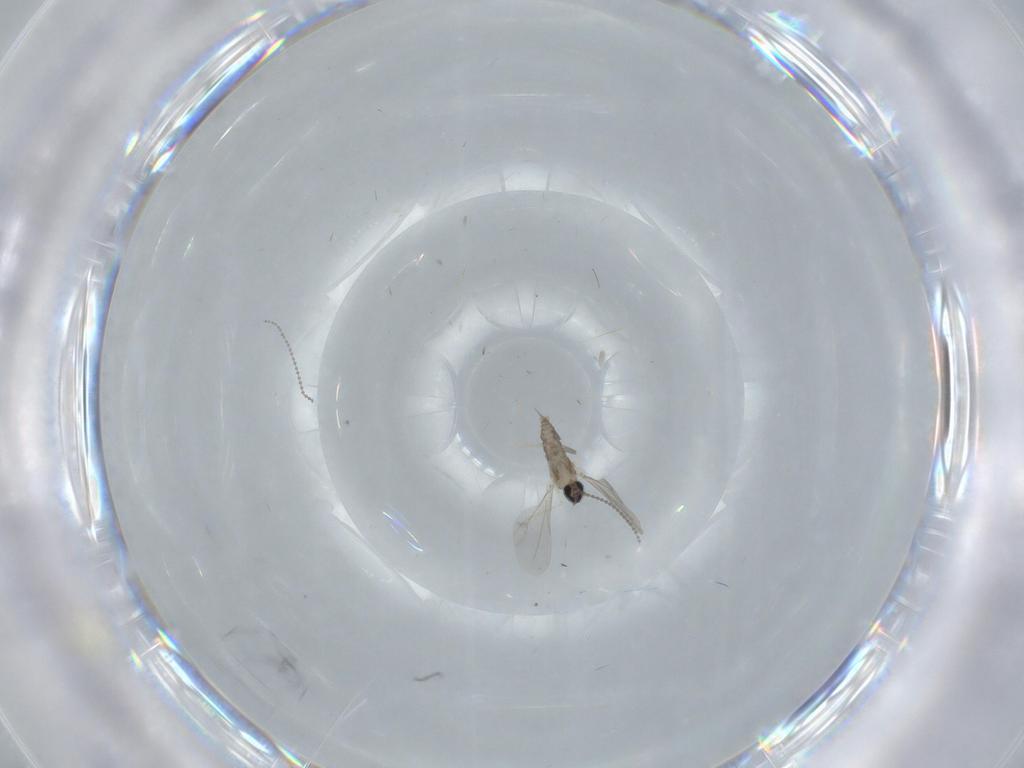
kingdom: Animalia
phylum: Arthropoda
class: Insecta
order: Diptera
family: Cecidomyiidae
